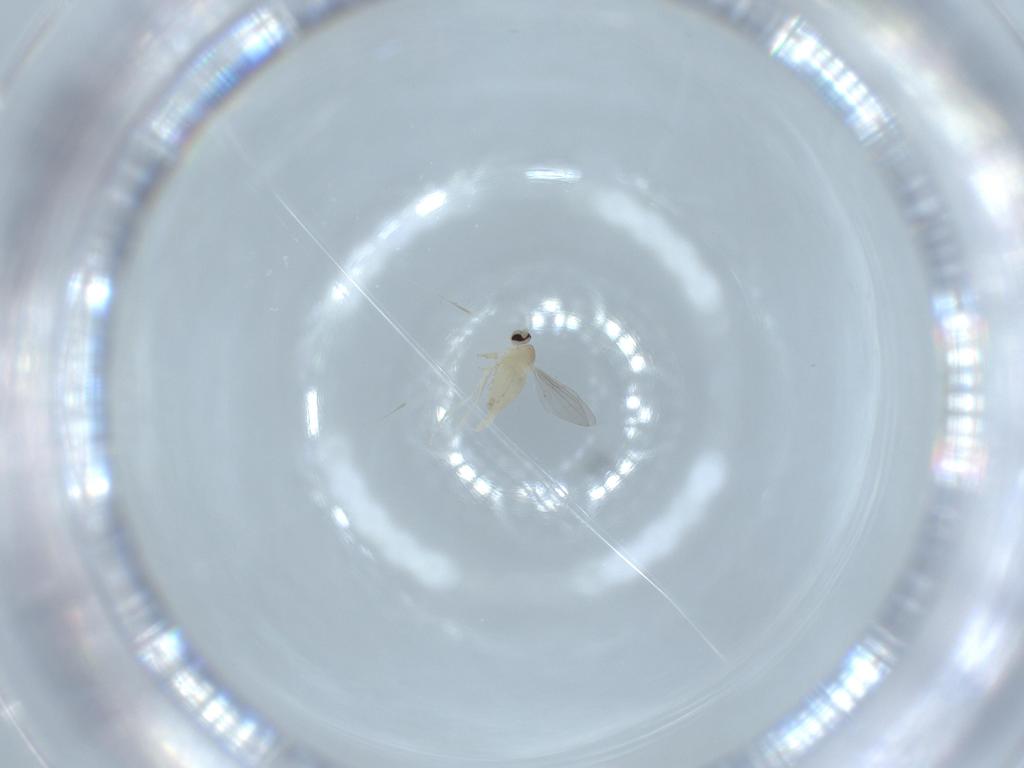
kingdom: Animalia
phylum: Arthropoda
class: Insecta
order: Diptera
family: Cecidomyiidae
